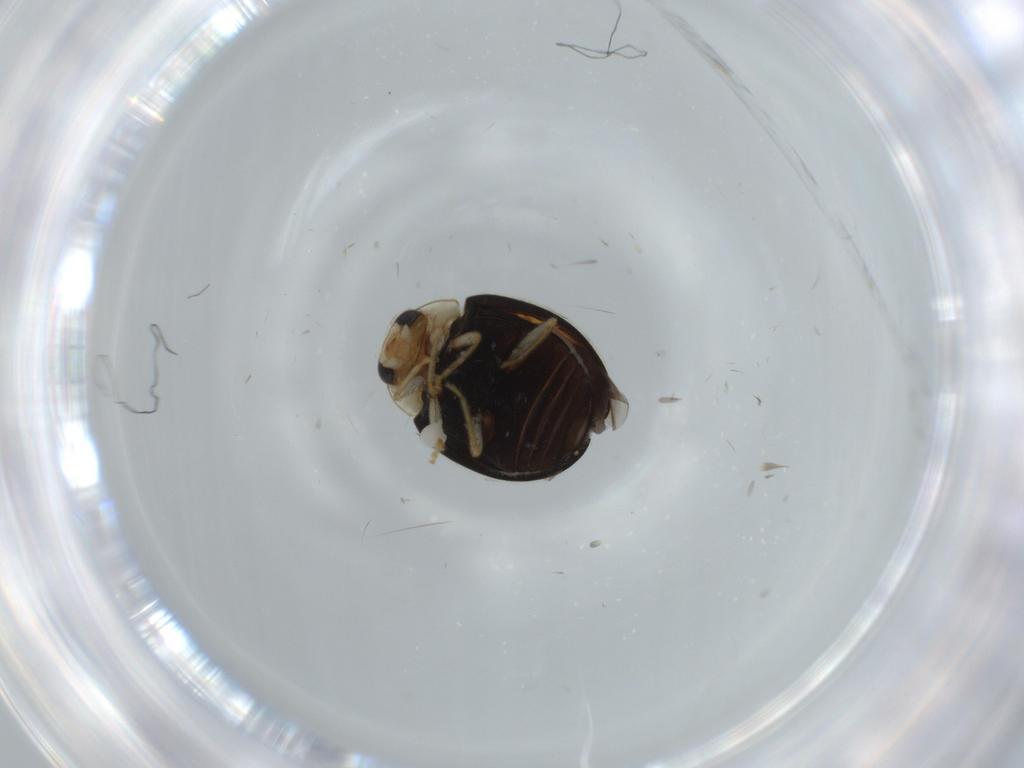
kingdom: Animalia
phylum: Arthropoda
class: Insecta
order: Coleoptera
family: Coccinellidae
